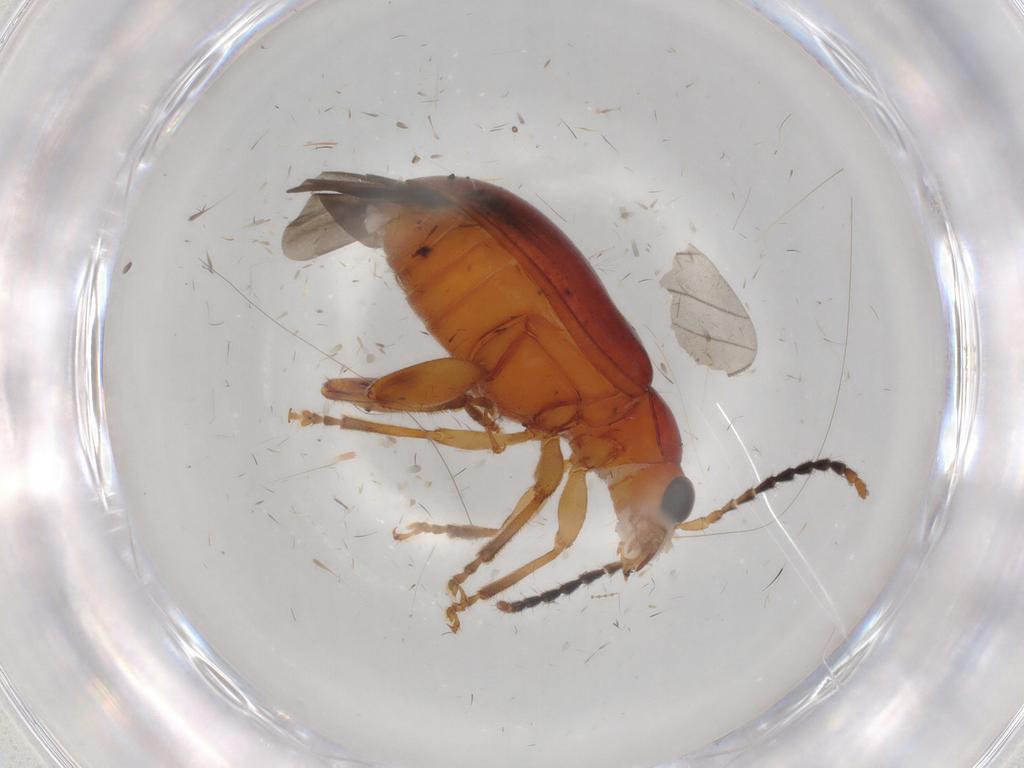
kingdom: Animalia
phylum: Arthropoda
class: Insecta
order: Coleoptera
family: Chrysomelidae
